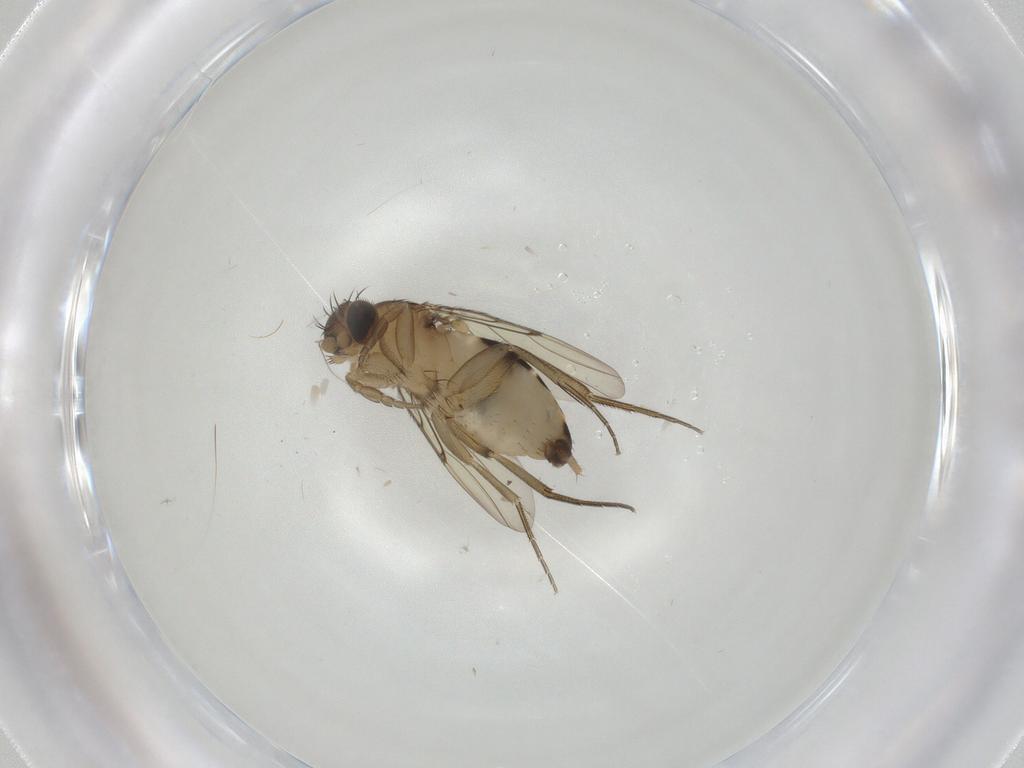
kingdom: Animalia
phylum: Arthropoda
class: Insecta
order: Diptera
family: Phoridae
